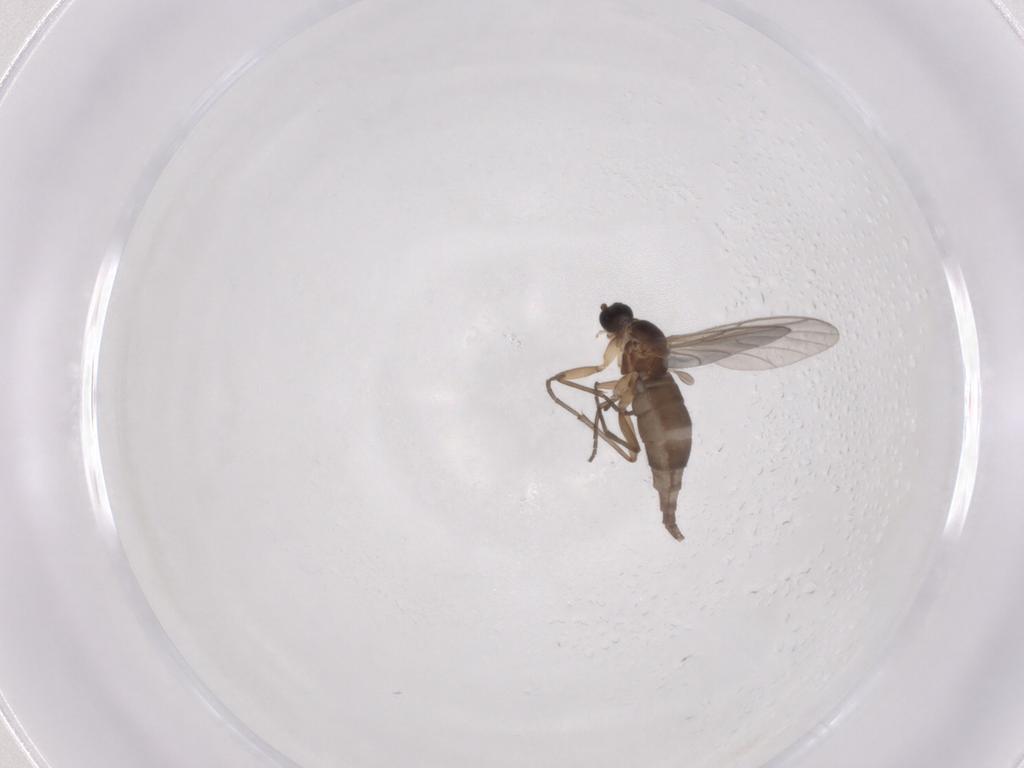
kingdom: Animalia
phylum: Arthropoda
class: Insecta
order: Diptera
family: Sciaridae
